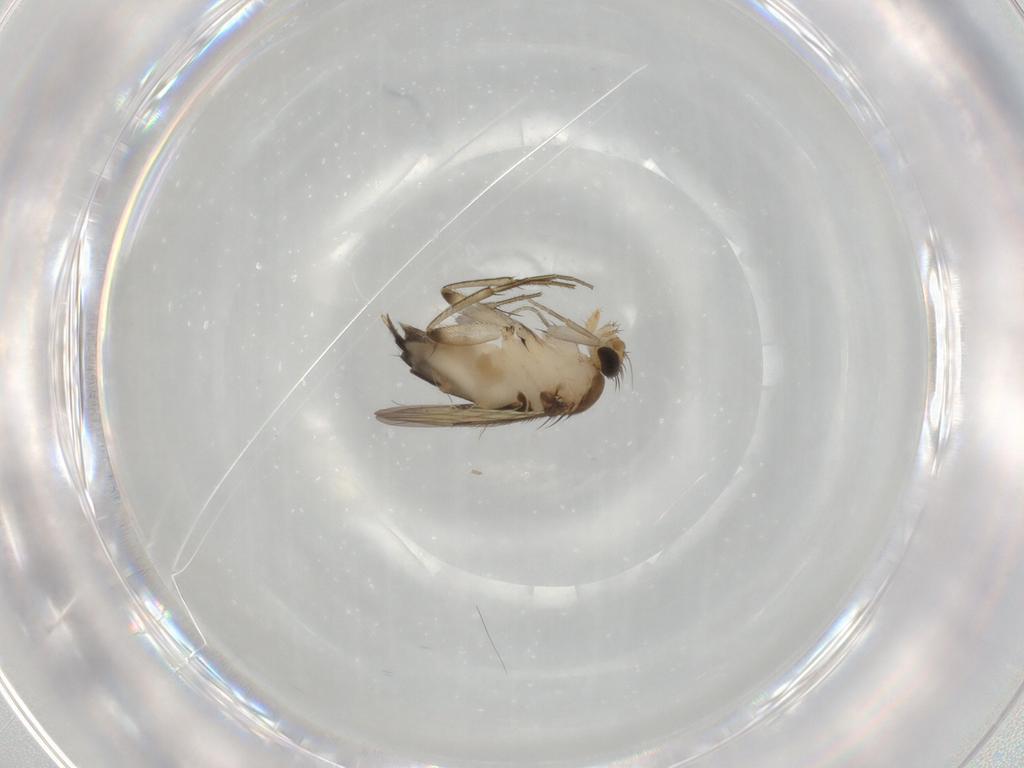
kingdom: Animalia
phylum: Arthropoda
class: Insecta
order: Diptera
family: Phoridae
